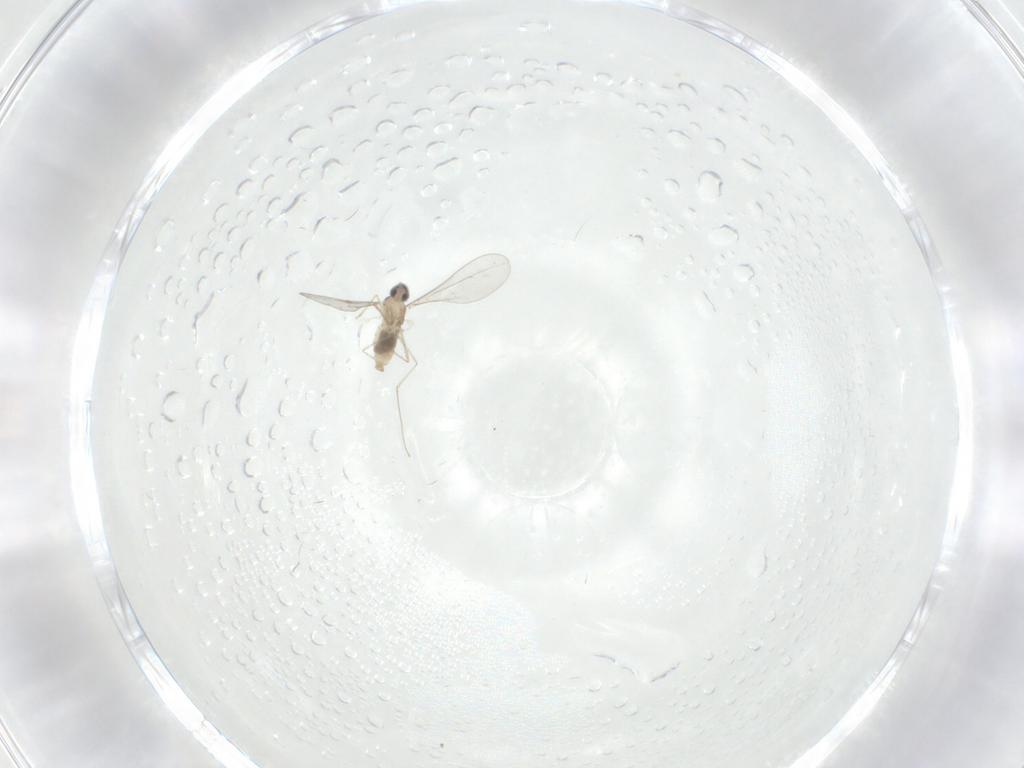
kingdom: Animalia
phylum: Arthropoda
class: Insecta
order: Diptera
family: Cecidomyiidae
